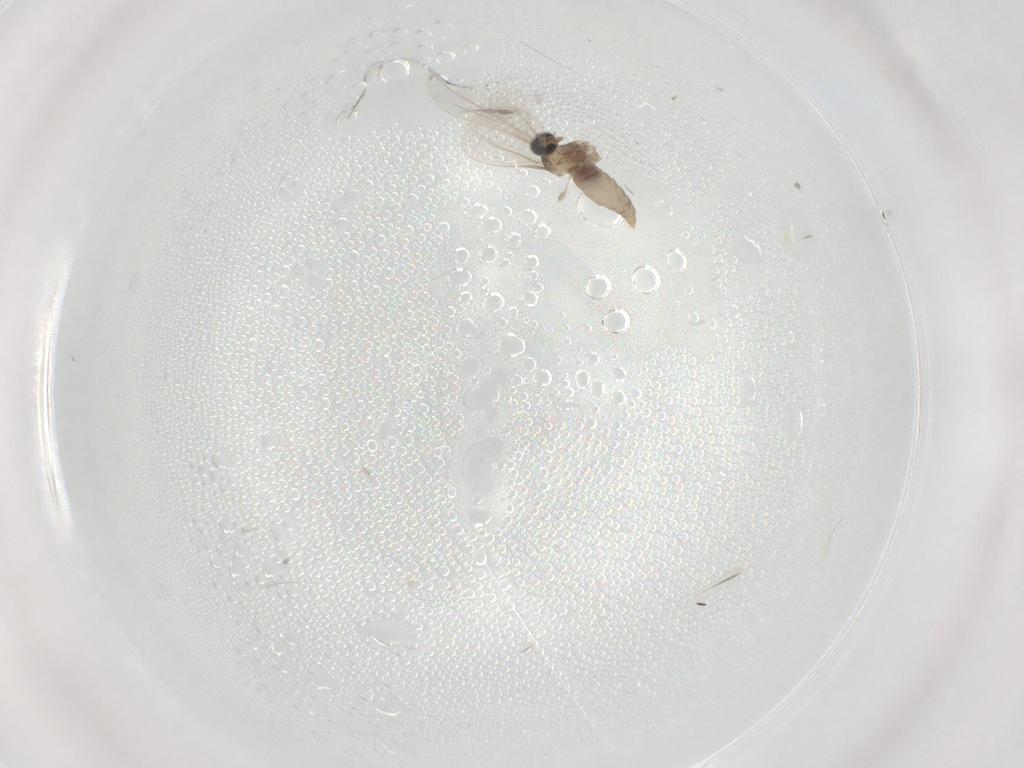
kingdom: Animalia
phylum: Arthropoda
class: Insecta
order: Diptera
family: Cecidomyiidae
